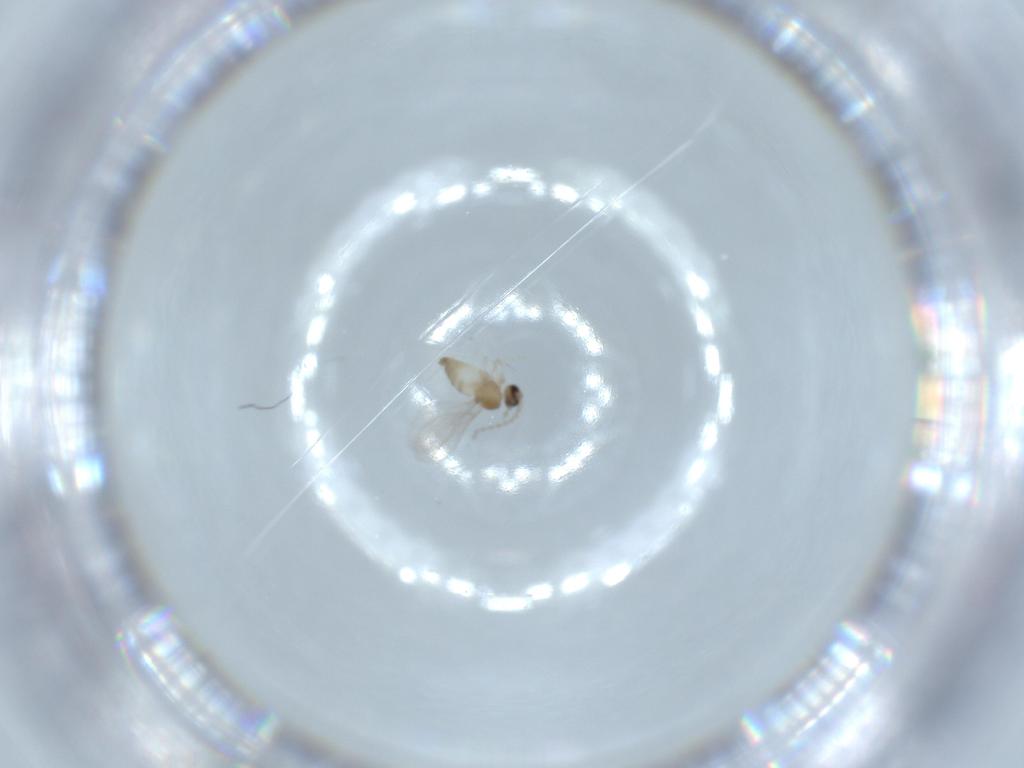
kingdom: Animalia
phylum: Arthropoda
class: Insecta
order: Diptera
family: Cecidomyiidae
